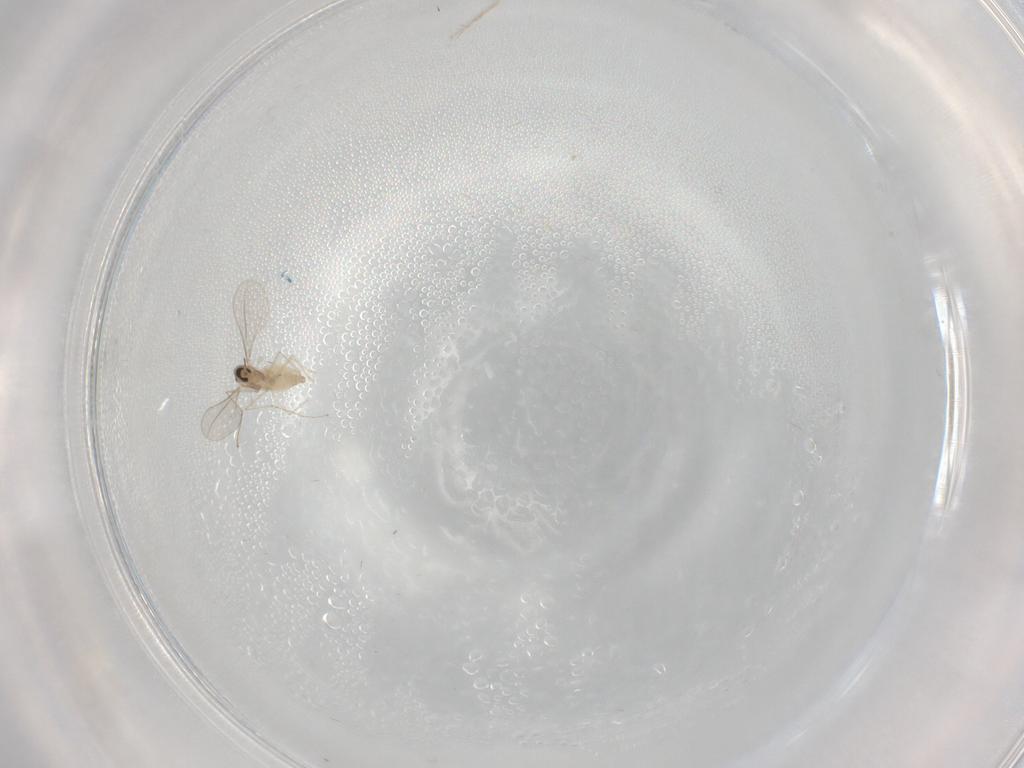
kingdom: Animalia
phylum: Arthropoda
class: Insecta
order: Diptera
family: Cecidomyiidae
